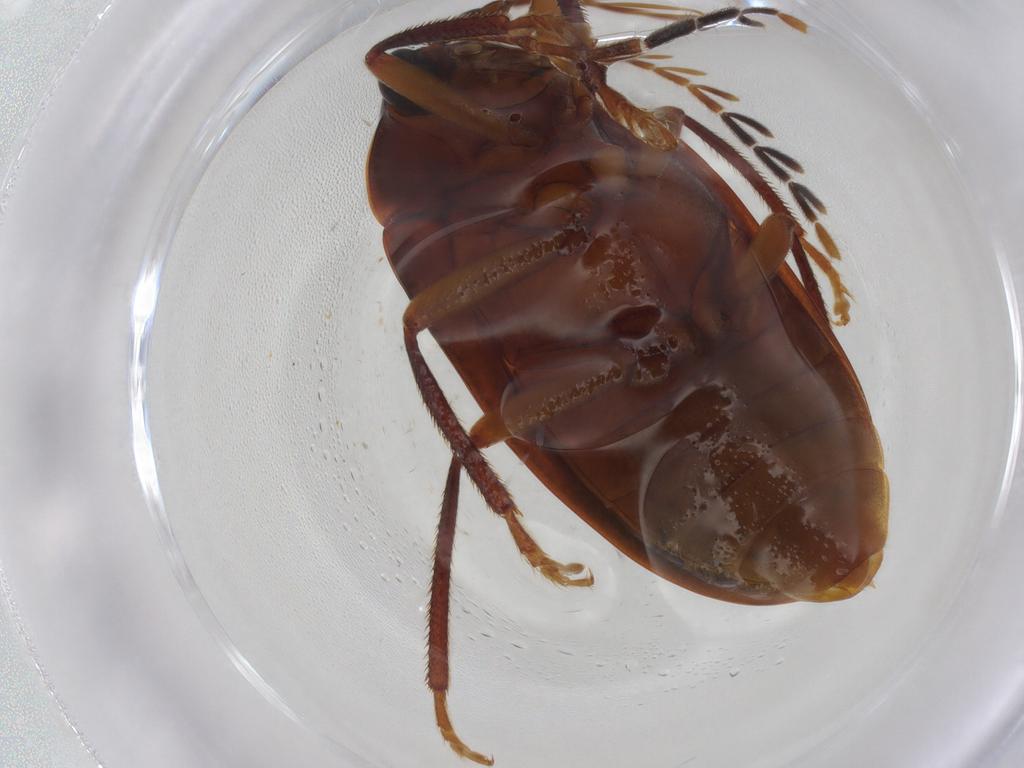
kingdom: Animalia
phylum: Arthropoda
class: Insecta
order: Coleoptera
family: Ptilodactylidae
